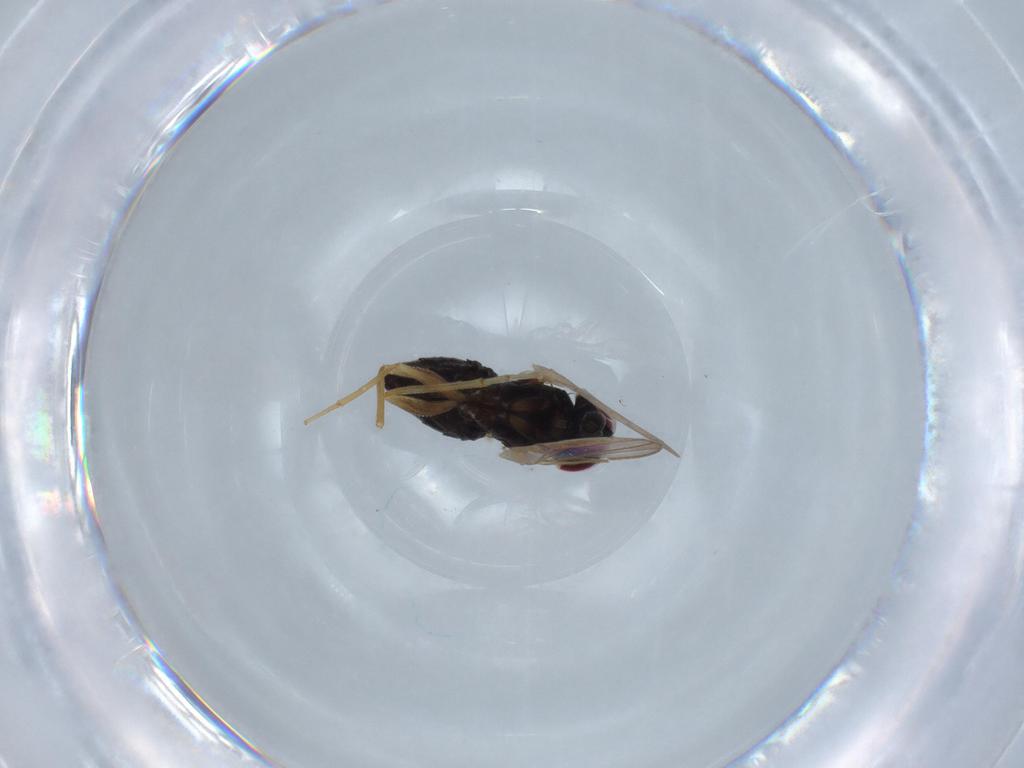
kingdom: Animalia
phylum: Arthropoda
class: Insecta
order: Diptera
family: Dolichopodidae
